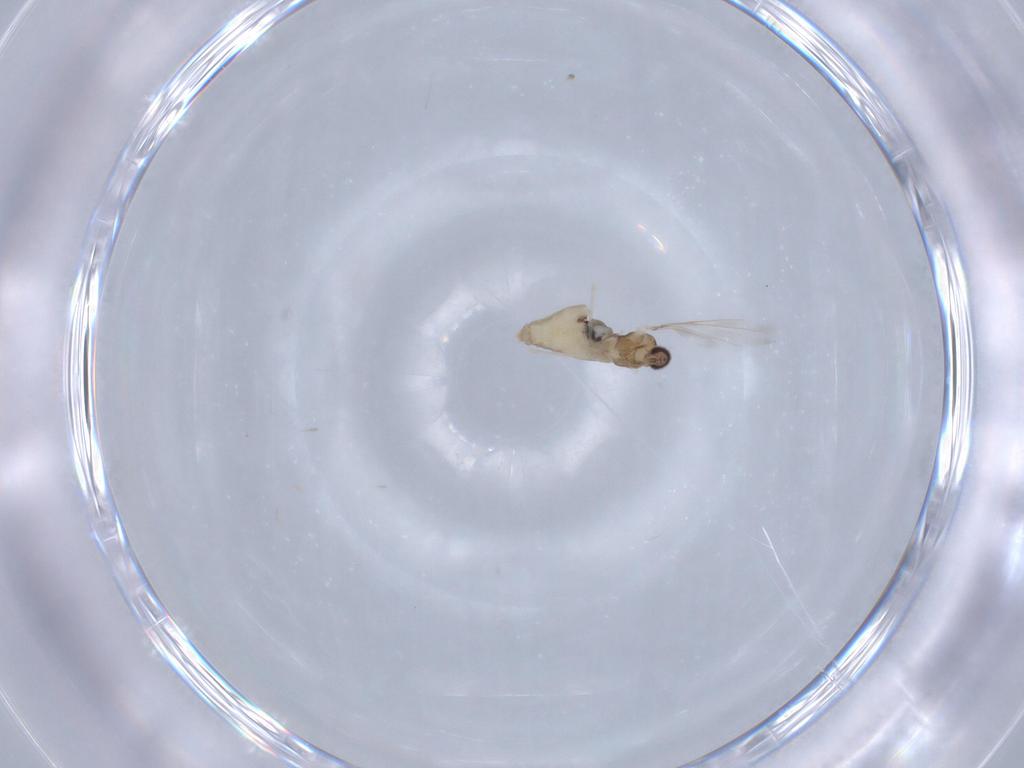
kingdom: Animalia
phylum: Arthropoda
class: Insecta
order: Diptera
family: Cecidomyiidae
